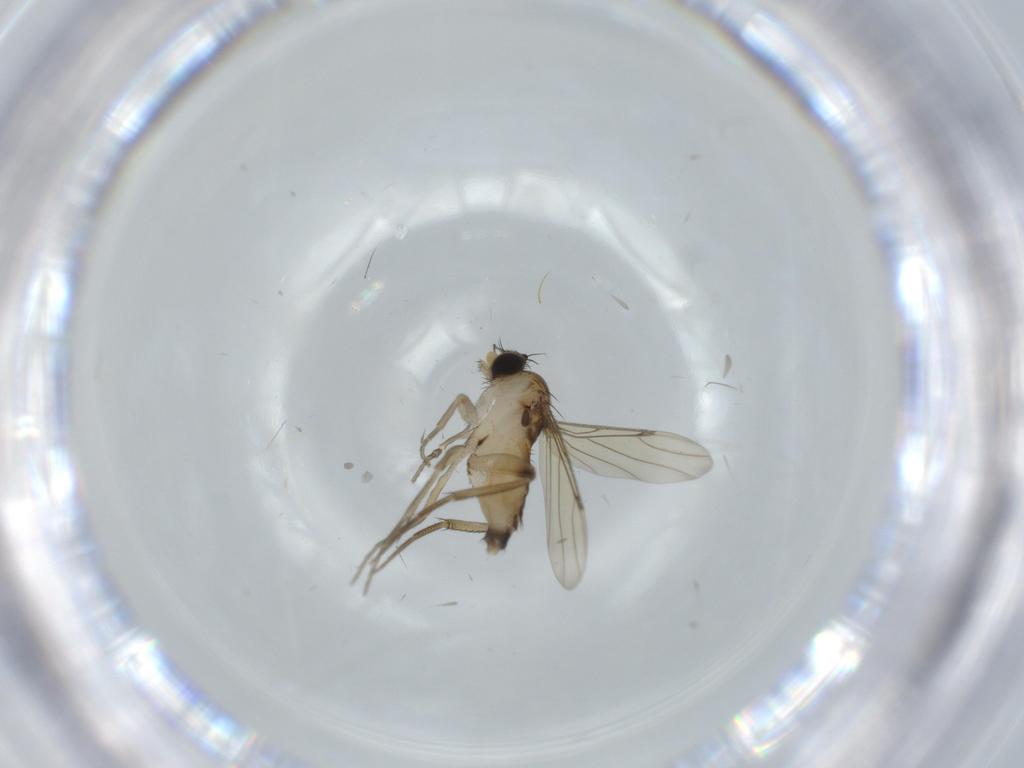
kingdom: Animalia
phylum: Arthropoda
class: Insecta
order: Diptera
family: Phoridae
